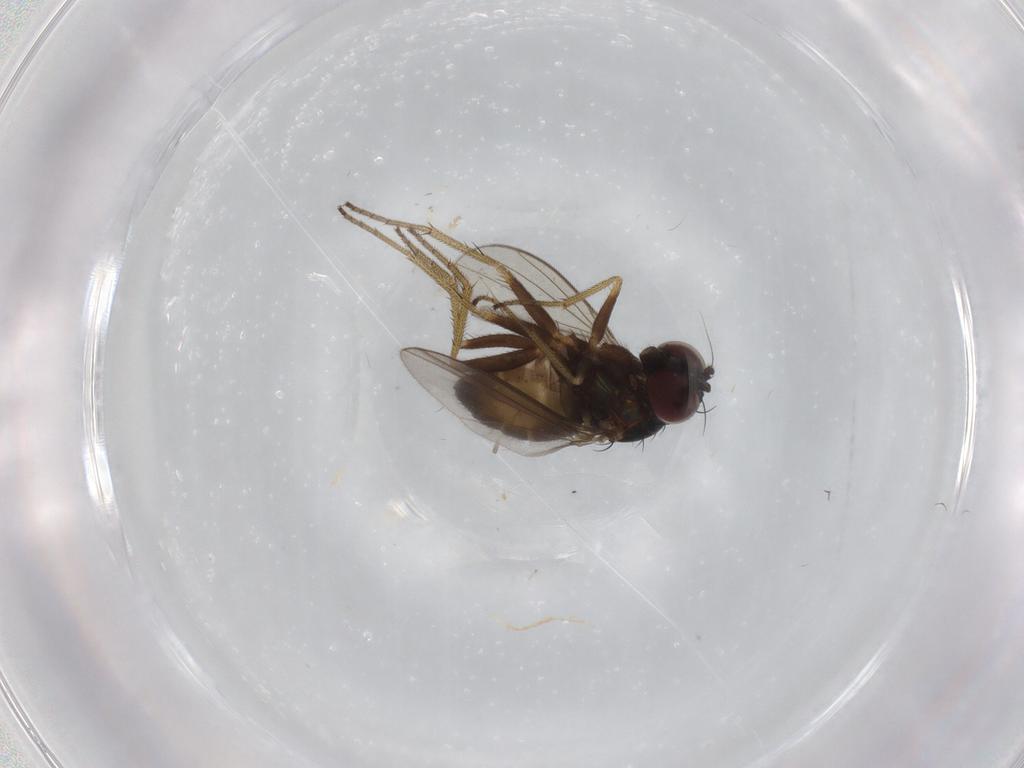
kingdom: Animalia
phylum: Arthropoda
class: Insecta
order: Diptera
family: Dolichopodidae
